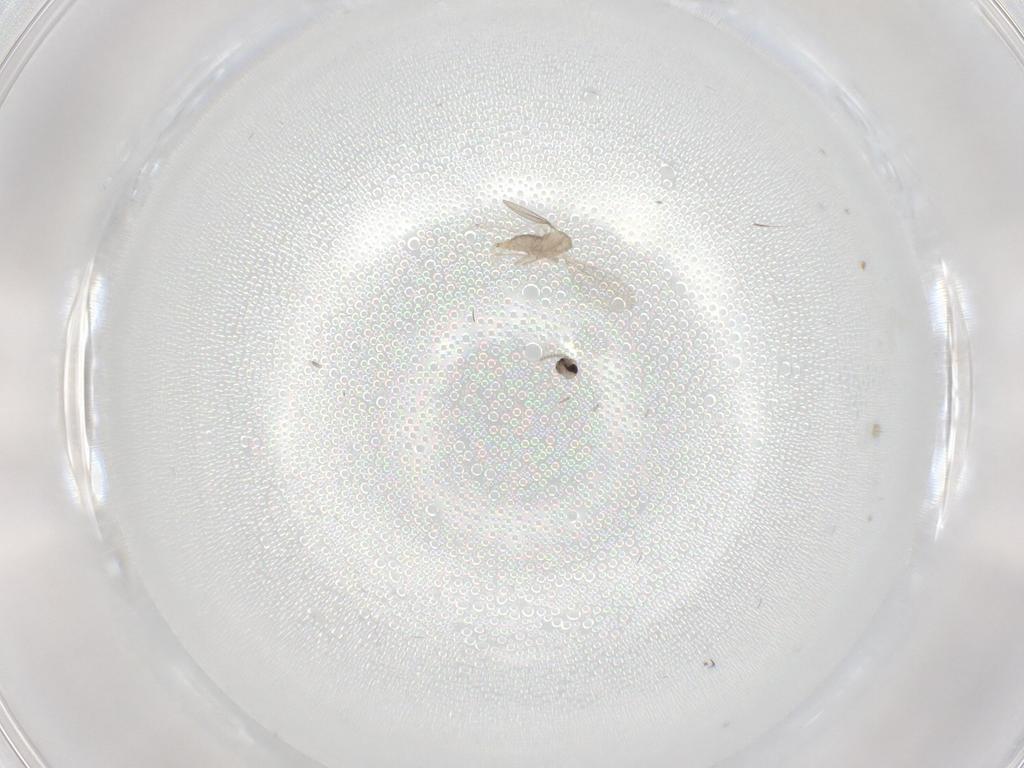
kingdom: Animalia
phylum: Arthropoda
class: Insecta
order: Diptera
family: Cecidomyiidae
